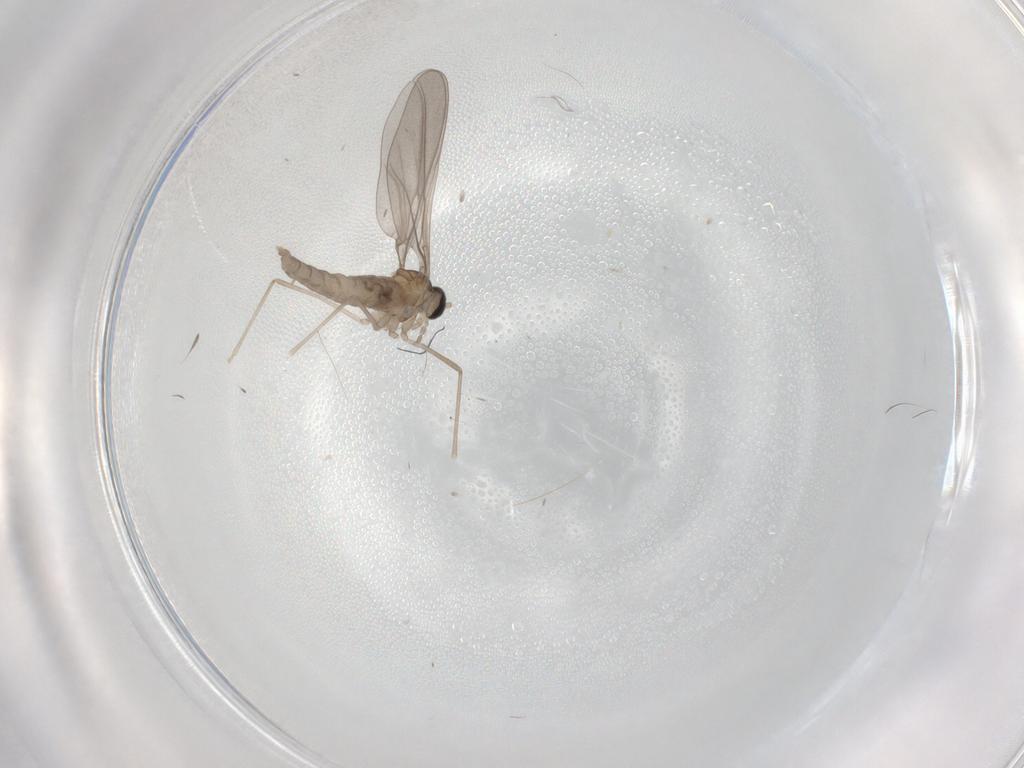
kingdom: Animalia
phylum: Arthropoda
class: Insecta
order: Diptera
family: Cecidomyiidae
